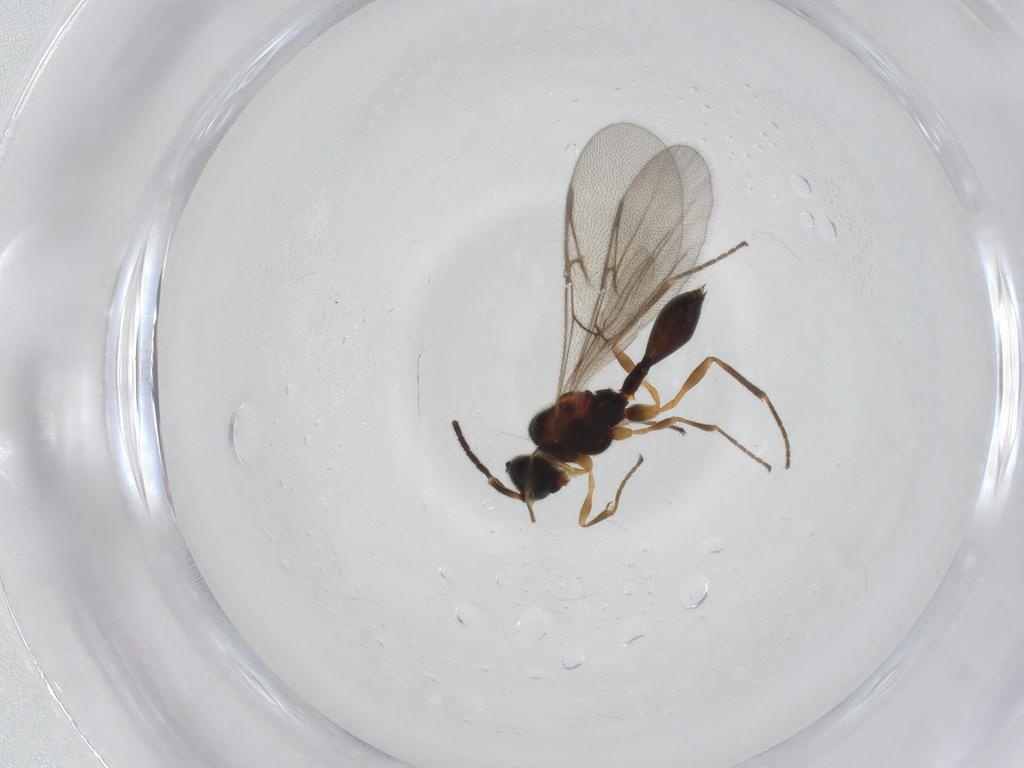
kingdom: Animalia
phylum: Arthropoda
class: Insecta
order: Hymenoptera
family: Diapriidae
